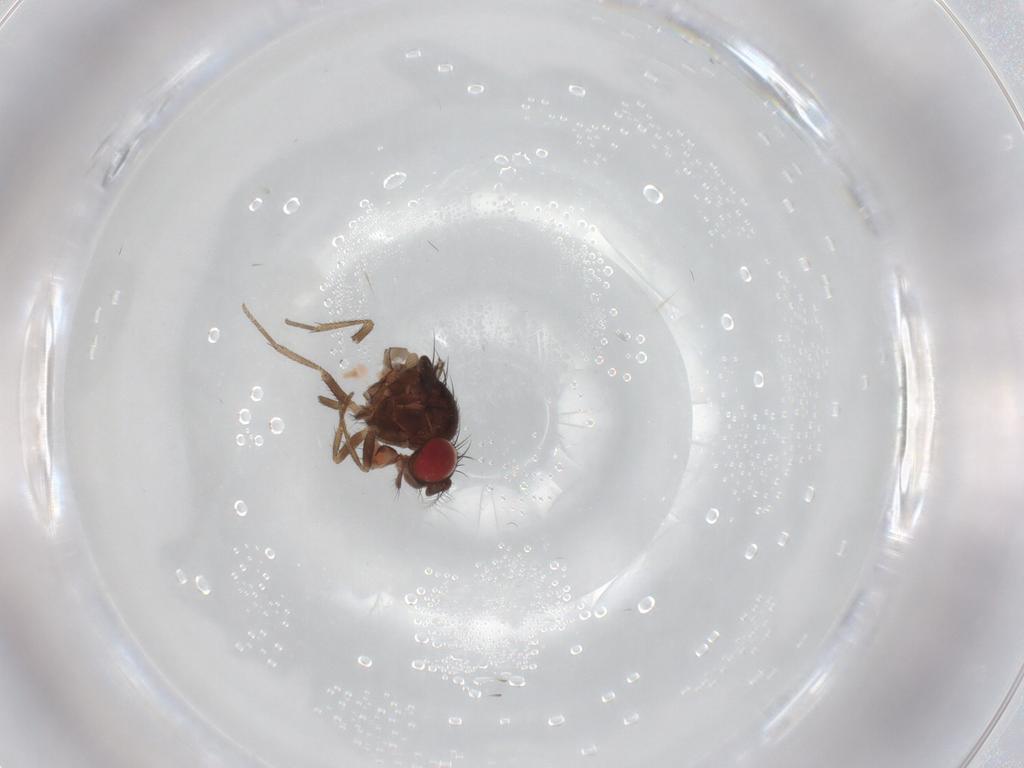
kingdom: Animalia
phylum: Arthropoda
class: Insecta
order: Diptera
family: Drosophilidae
